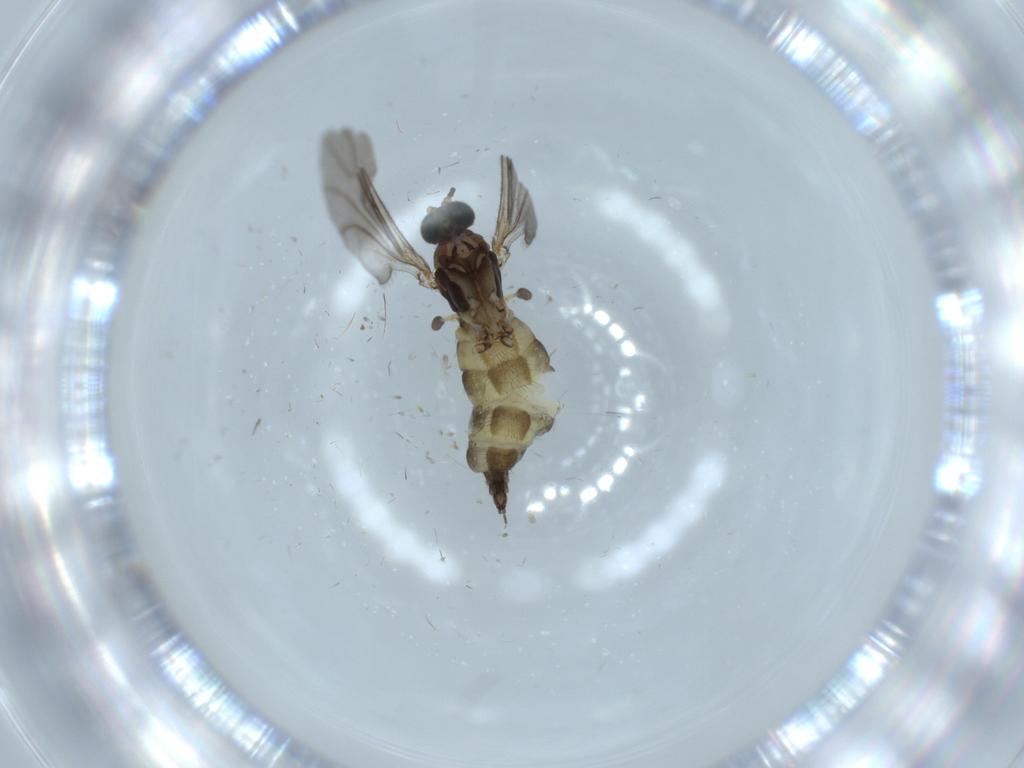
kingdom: Animalia
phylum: Arthropoda
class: Insecta
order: Diptera
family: Sciaridae
